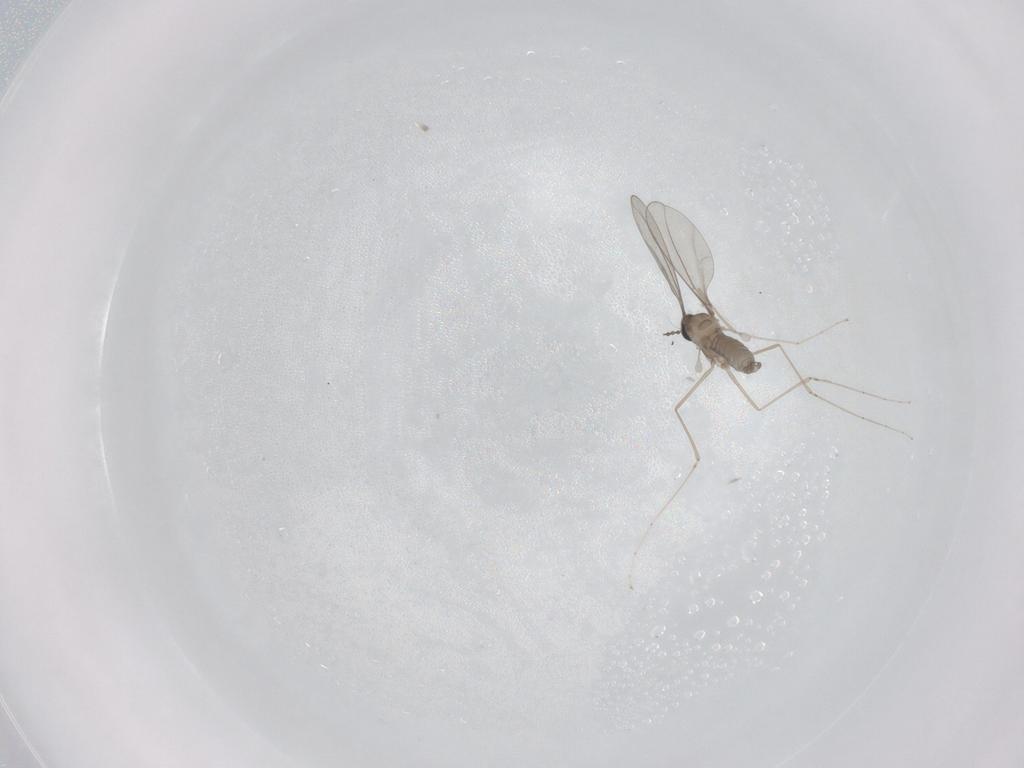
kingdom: Animalia
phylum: Arthropoda
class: Insecta
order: Diptera
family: Cecidomyiidae
